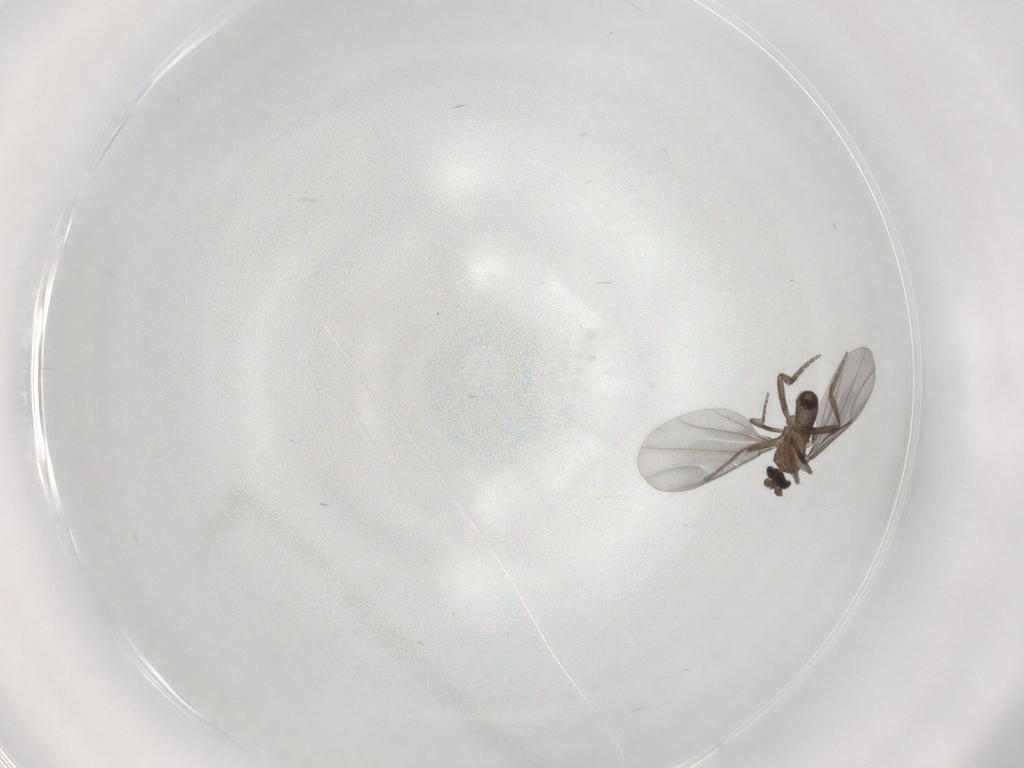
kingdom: Animalia
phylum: Arthropoda
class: Insecta
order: Diptera
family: Phoridae
